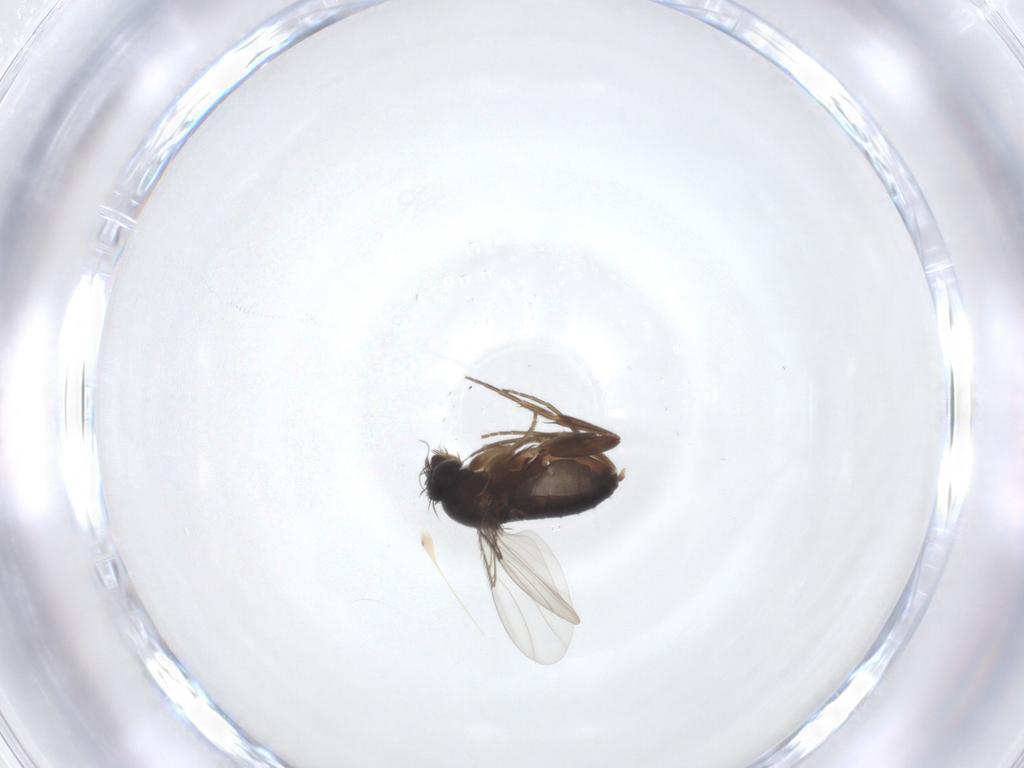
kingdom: Animalia
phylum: Arthropoda
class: Insecta
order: Diptera
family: Phoridae
